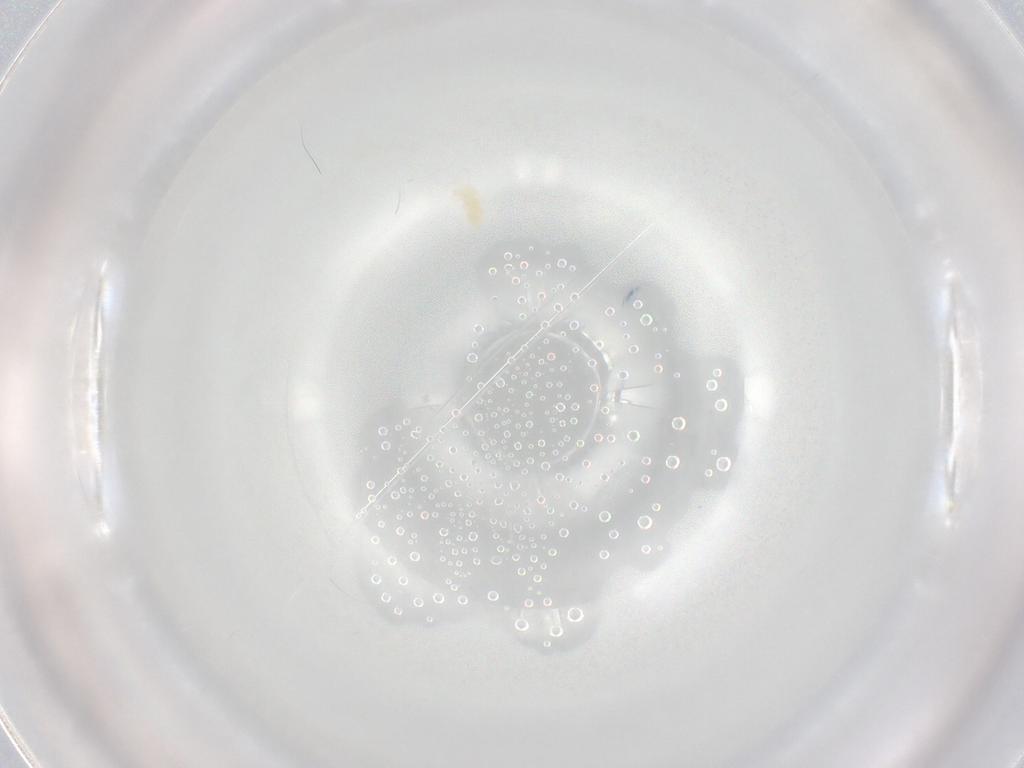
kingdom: Animalia
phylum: Arthropoda
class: Arachnida
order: Trombidiformes
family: Eupodidae
